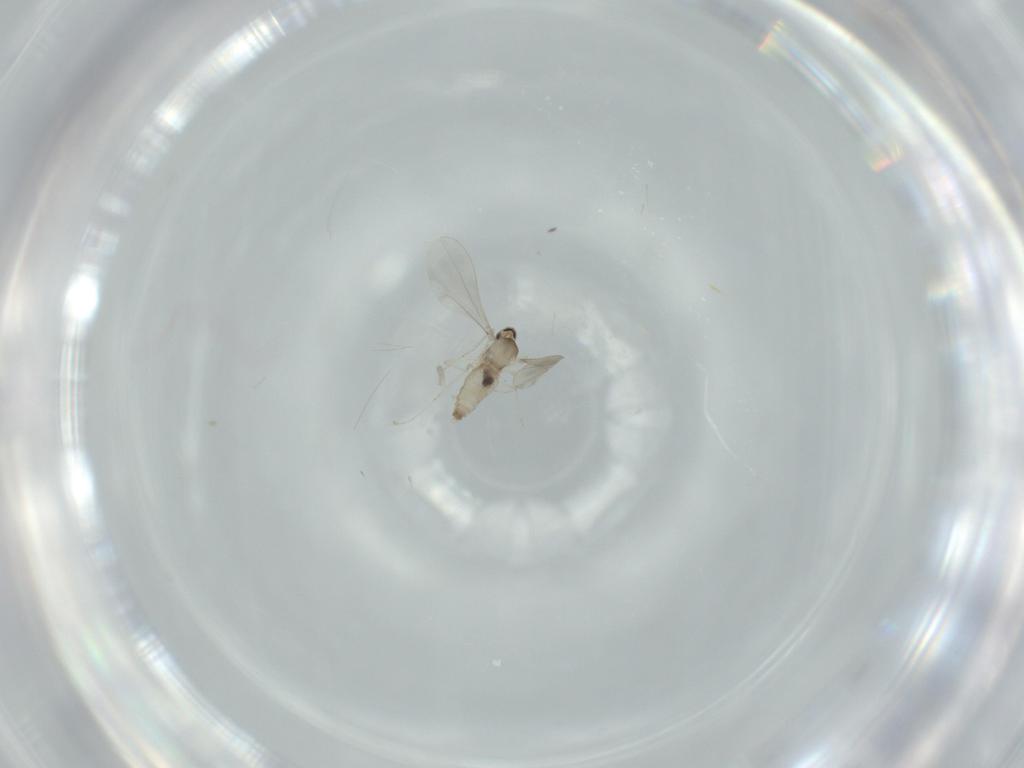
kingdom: Animalia
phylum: Arthropoda
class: Insecta
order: Diptera
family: Cecidomyiidae
